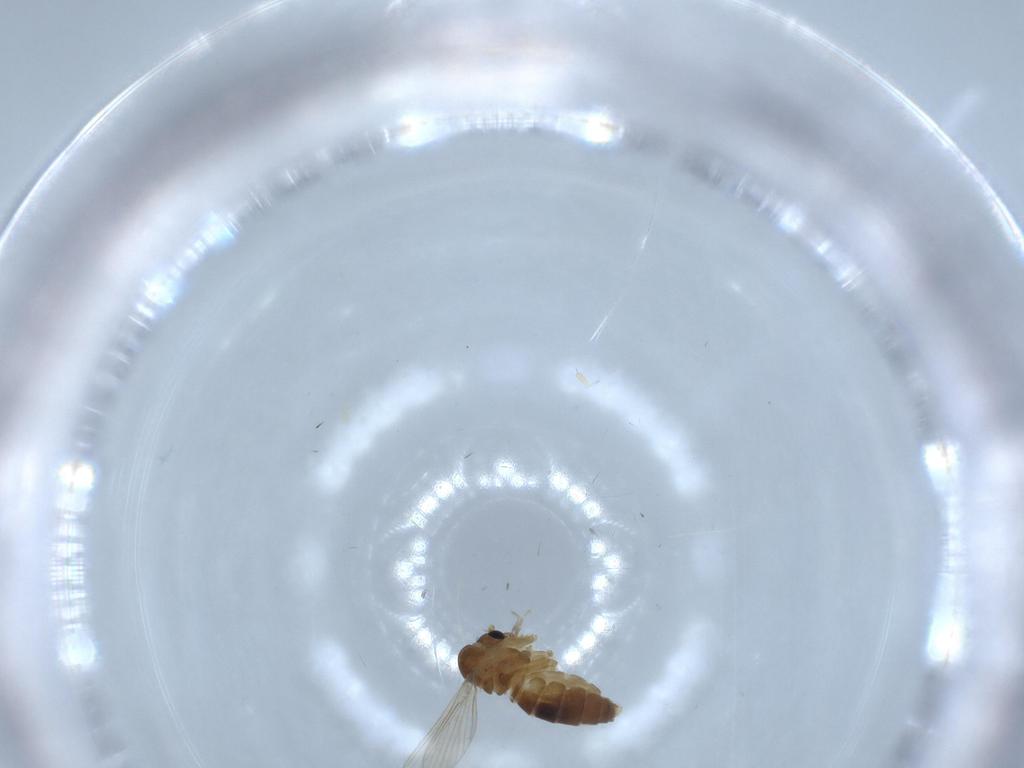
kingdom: Animalia
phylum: Arthropoda
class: Insecta
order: Diptera
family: Psychodidae
